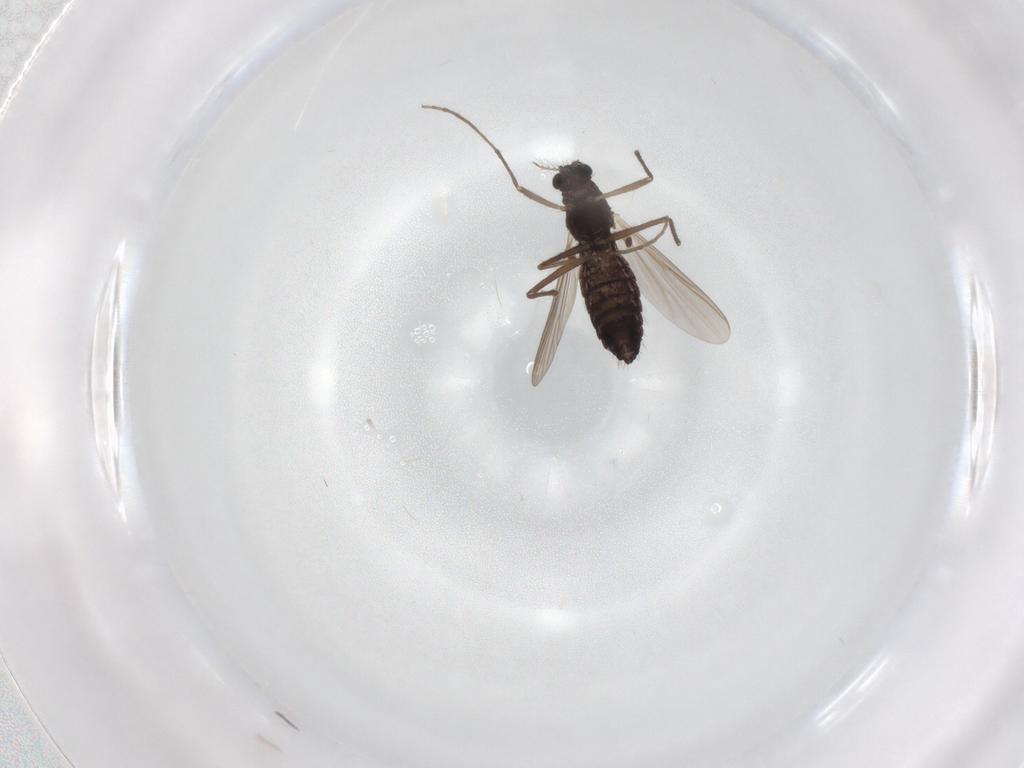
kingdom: Animalia
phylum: Arthropoda
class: Insecta
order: Diptera
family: Chironomidae
